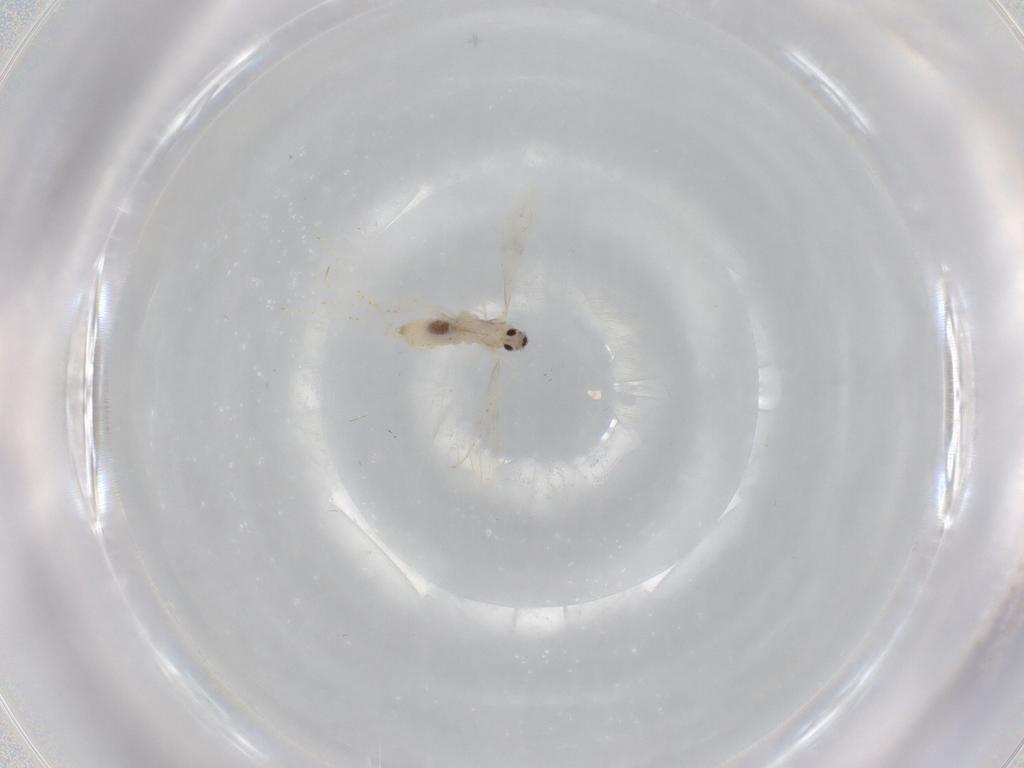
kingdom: Animalia
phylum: Arthropoda
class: Insecta
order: Diptera
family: Cecidomyiidae
